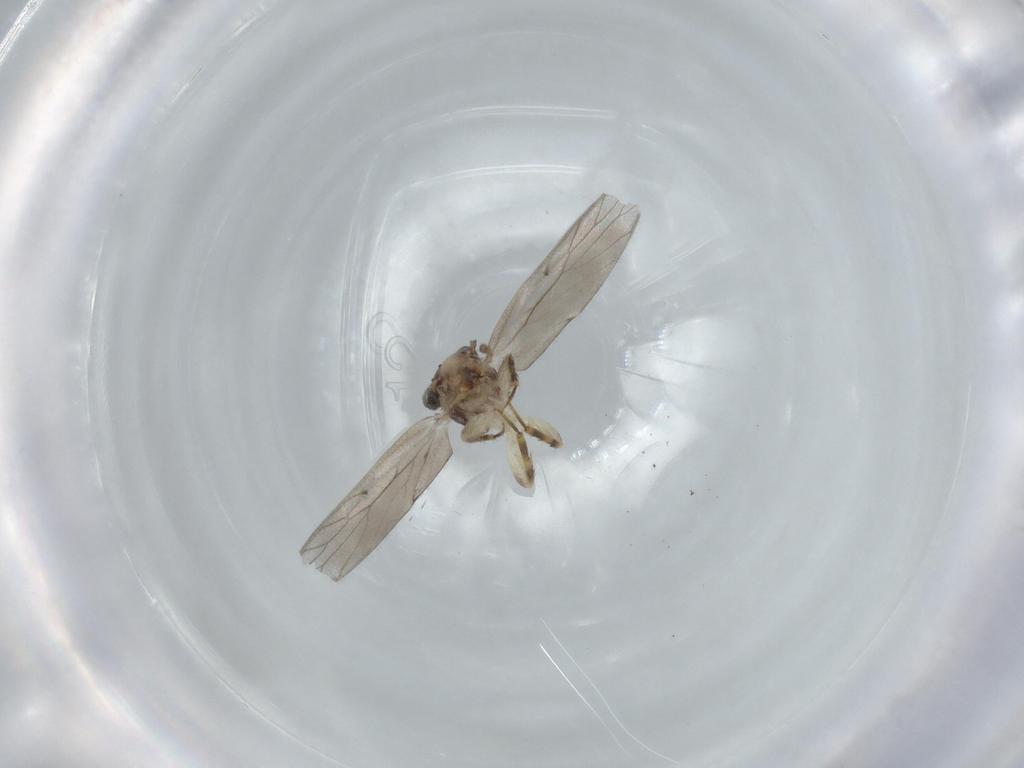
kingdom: Animalia
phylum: Arthropoda
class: Insecta
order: Psocodea
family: Lepidopsocidae
